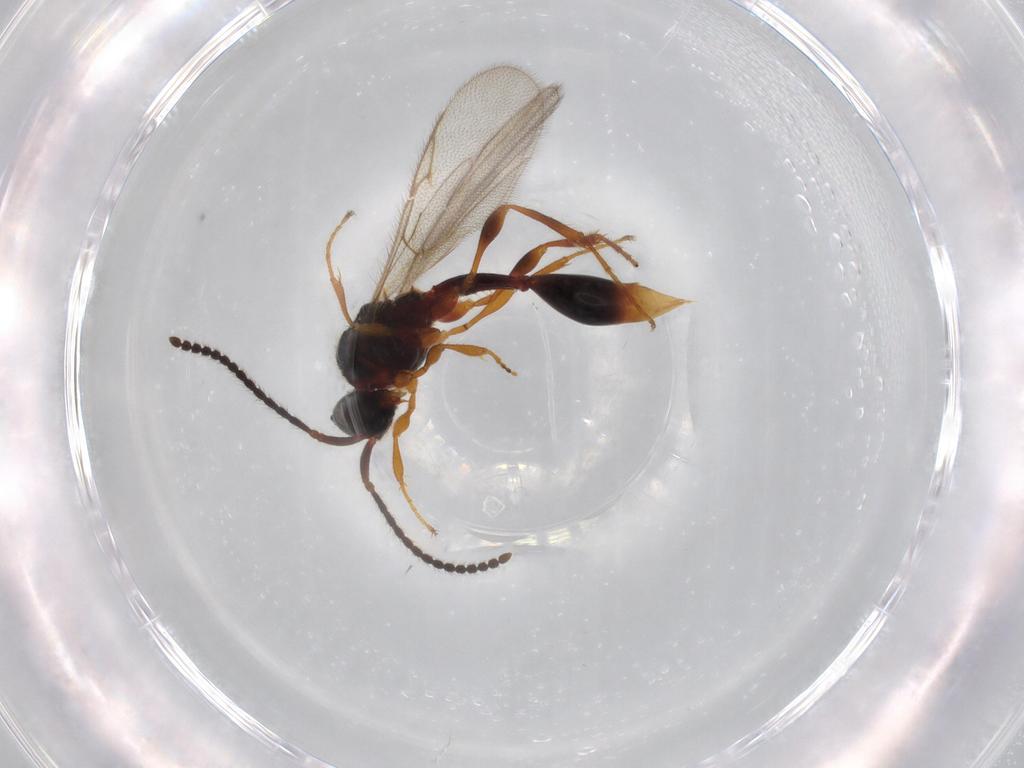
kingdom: Animalia
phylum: Arthropoda
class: Insecta
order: Hymenoptera
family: Diapriidae
